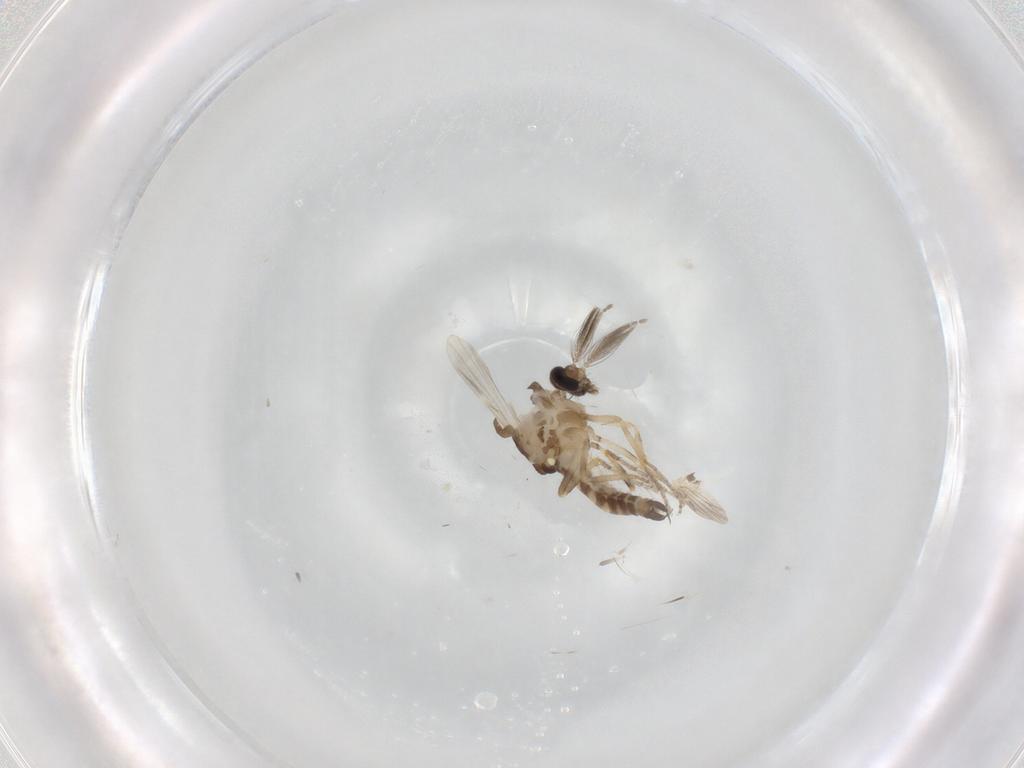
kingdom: Animalia
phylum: Arthropoda
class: Insecta
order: Diptera
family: Ceratopogonidae
